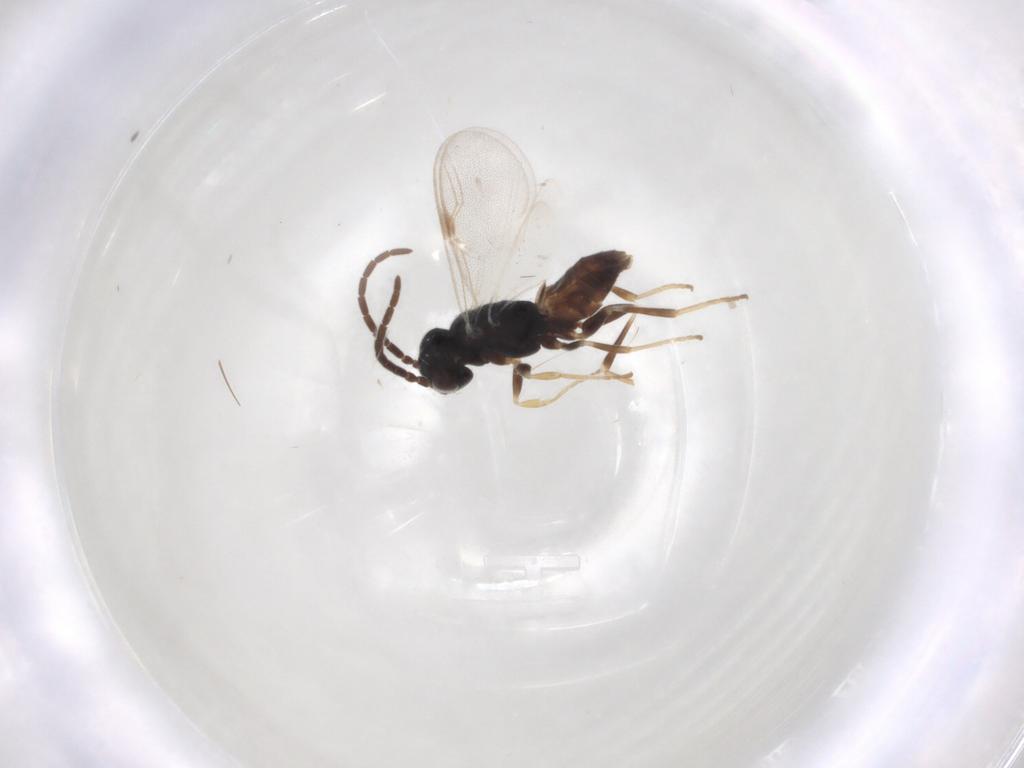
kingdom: Animalia
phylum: Arthropoda
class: Insecta
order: Hymenoptera
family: Dryinidae
